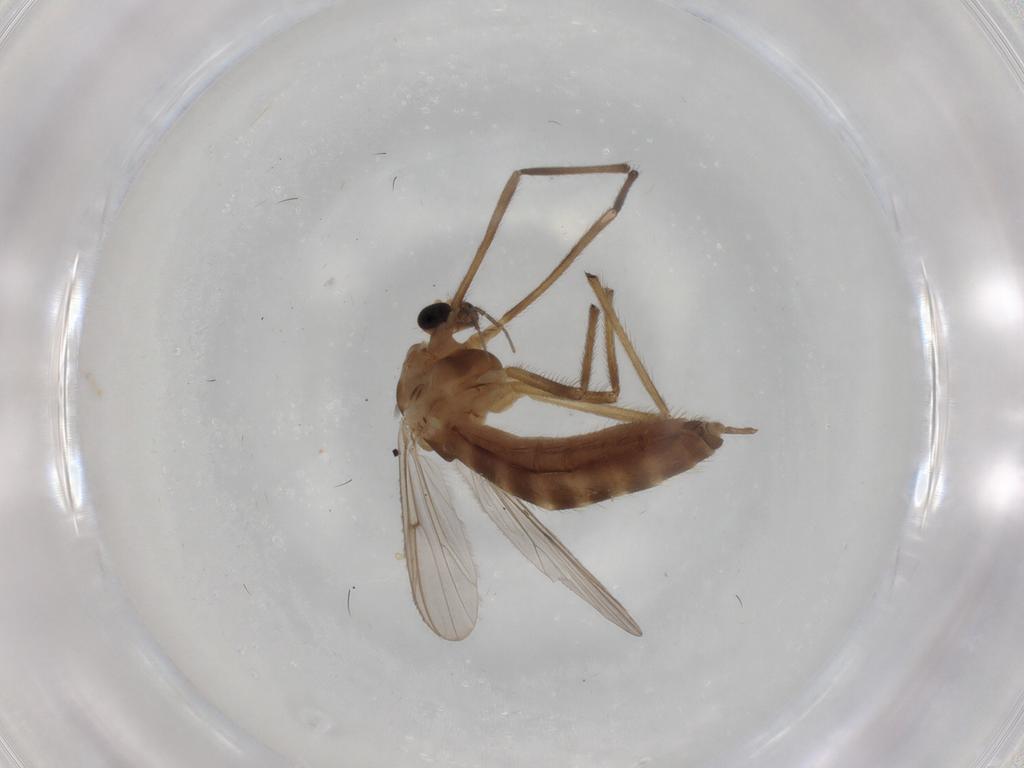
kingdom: Animalia
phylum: Arthropoda
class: Insecta
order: Diptera
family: Chironomidae
